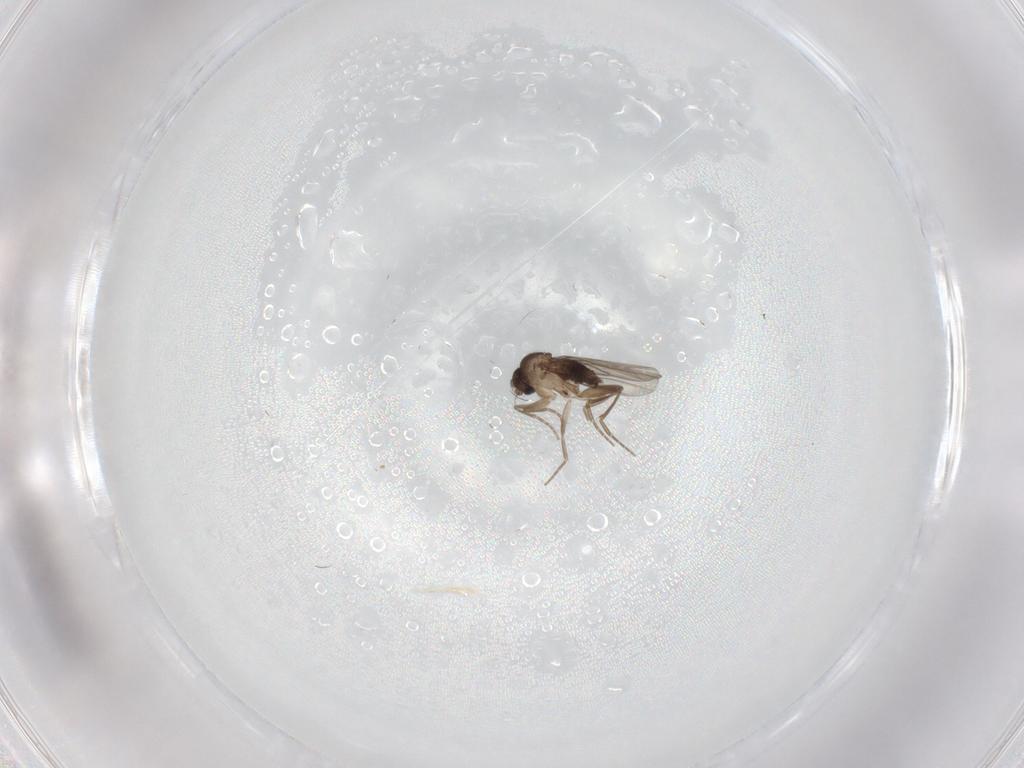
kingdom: Animalia
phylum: Arthropoda
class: Insecta
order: Diptera
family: Phoridae
